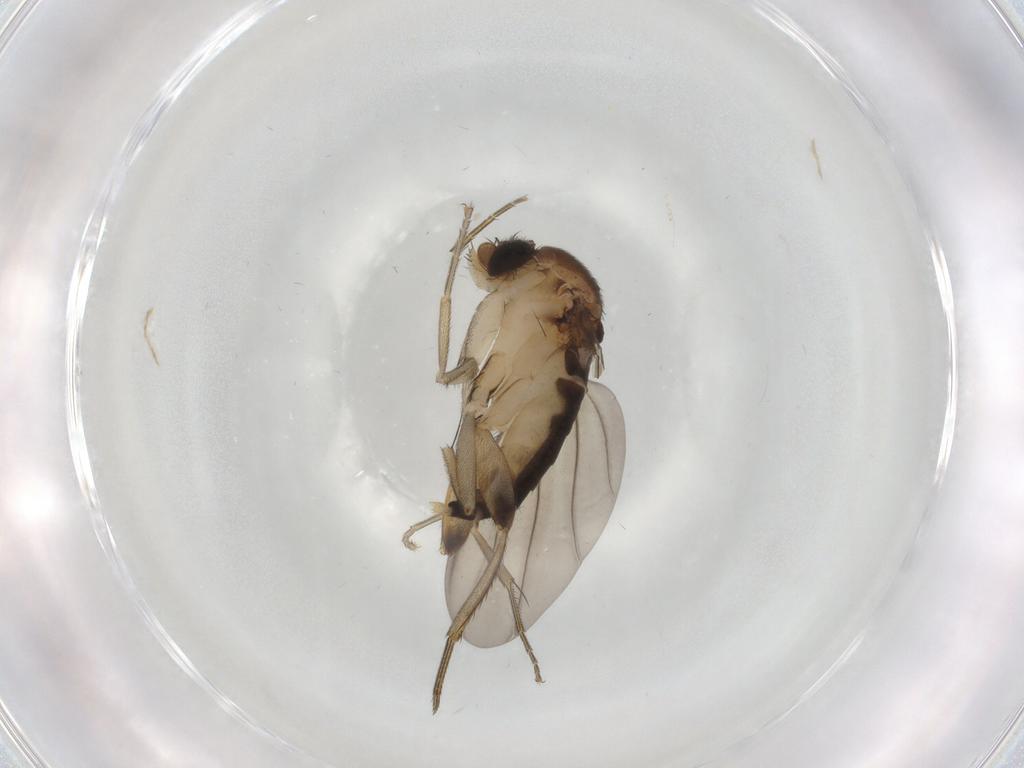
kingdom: Animalia
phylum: Arthropoda
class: Insecta
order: Diptera
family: Phoridae
